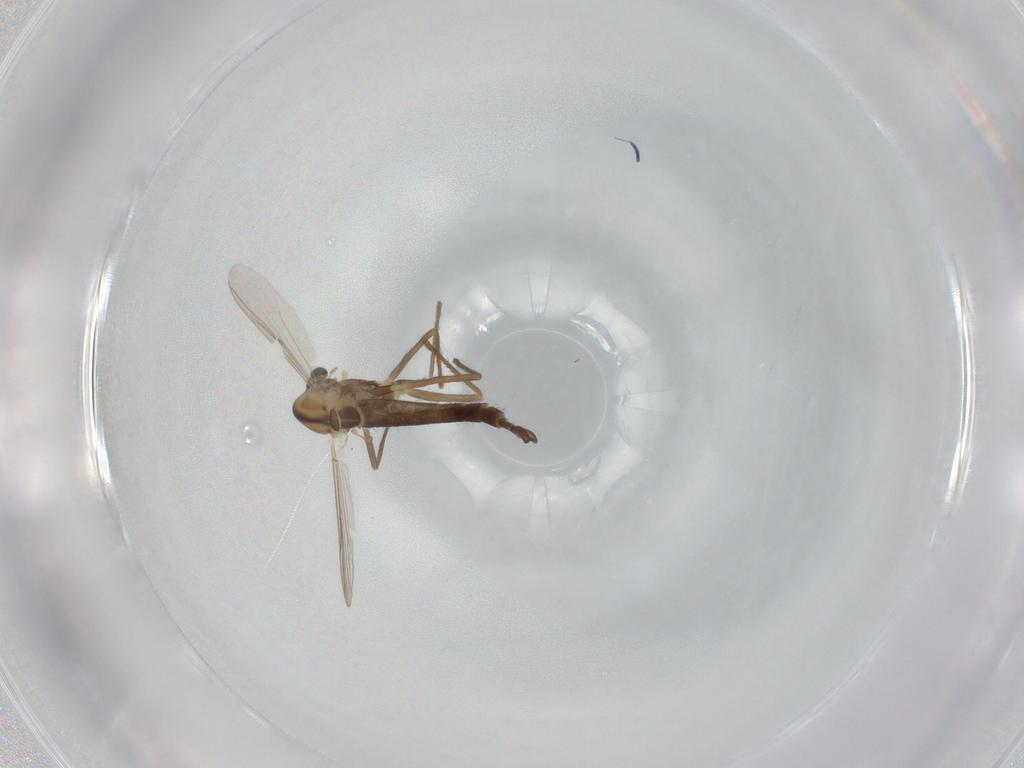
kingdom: Animalia
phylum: Arthropoda
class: Insecta
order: Diptera
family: Chironomidae
